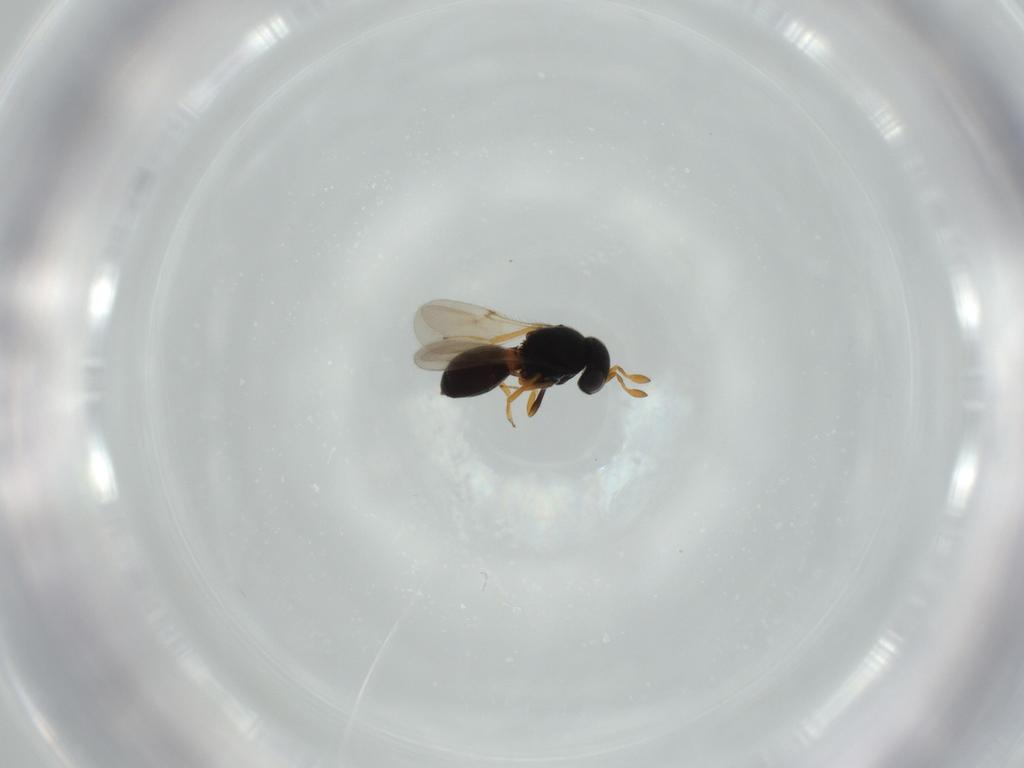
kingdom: Animalia
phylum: Arthropoda
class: Insecta
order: Hymenoptera
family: Scelionidae
